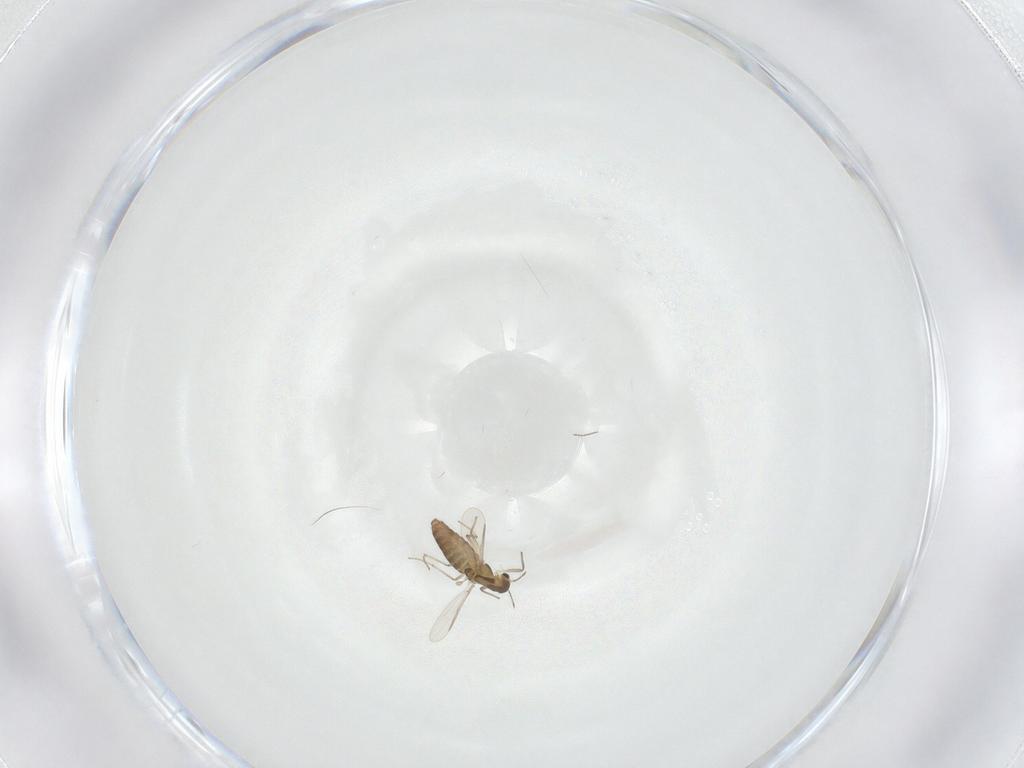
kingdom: Animalia
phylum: Arthropoda
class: Insecta
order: Diptera
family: Chironomidae
